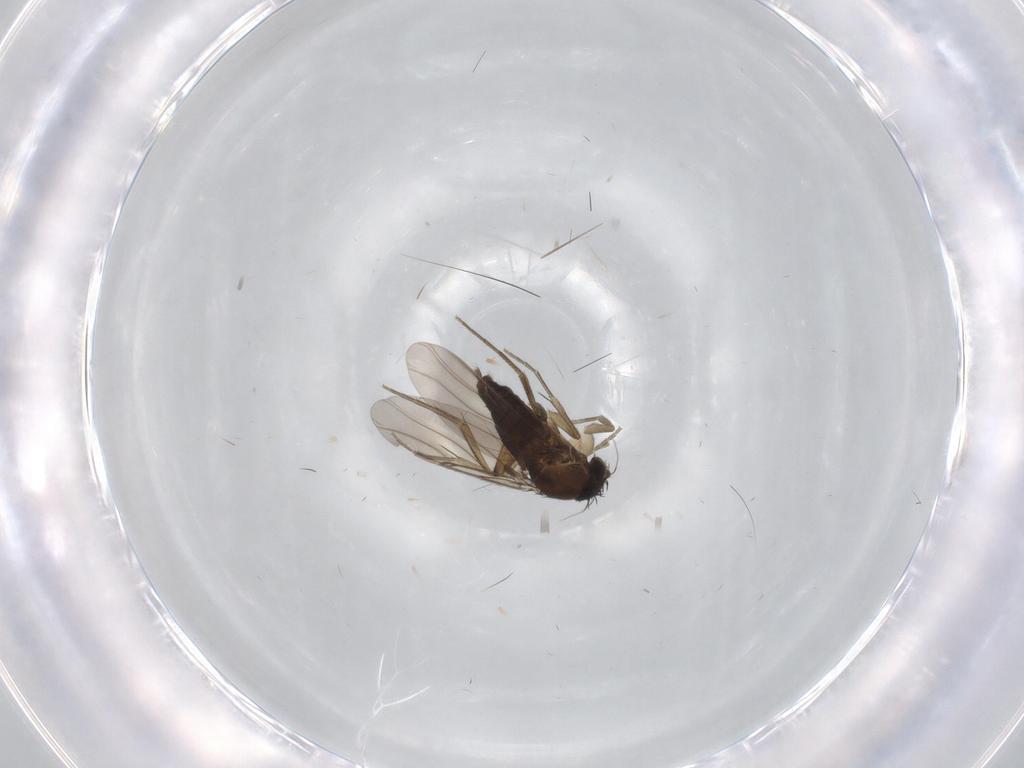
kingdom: Animalia
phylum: Arthropoda
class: Insecta
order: Diptera
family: Phoridae
